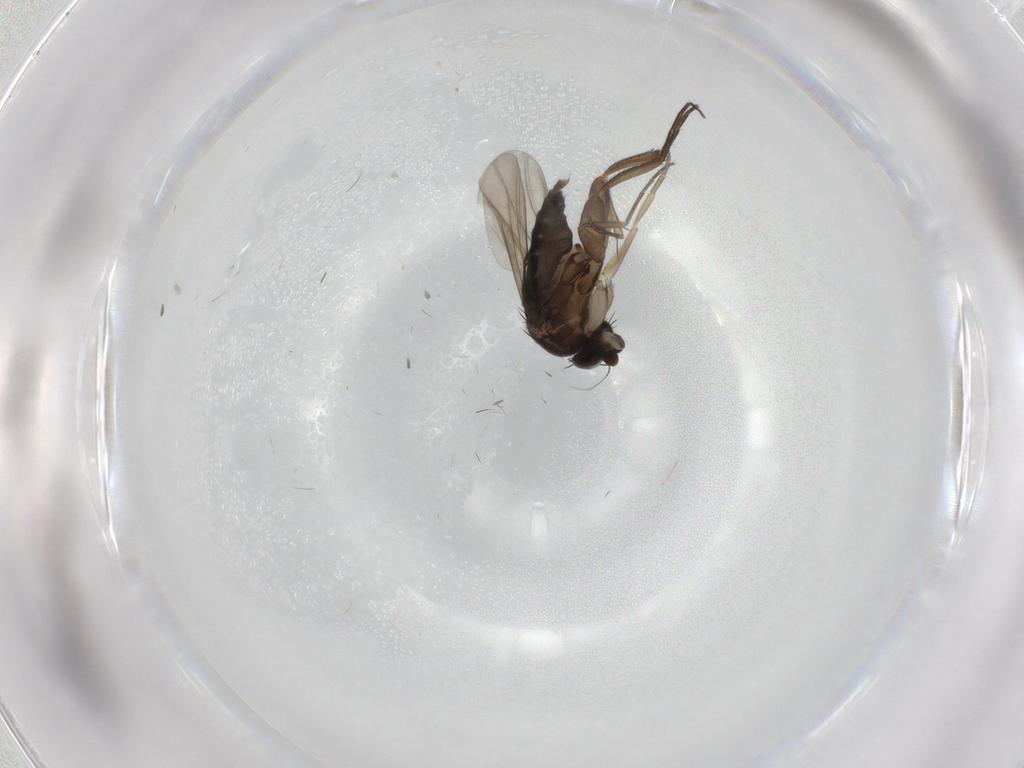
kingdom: Animalia
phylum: Arthropoda
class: Insecta
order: Diptera
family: Phoridae
